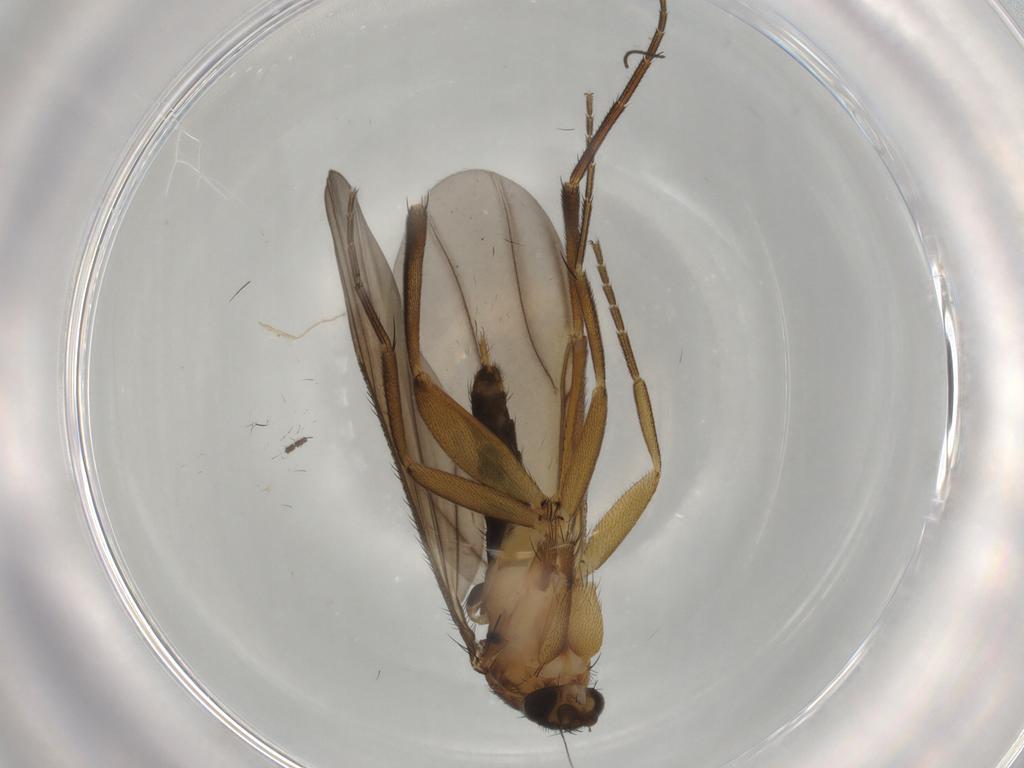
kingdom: Animalia
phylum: Arthropoda
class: Insecta
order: Diptera
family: Phoridae
